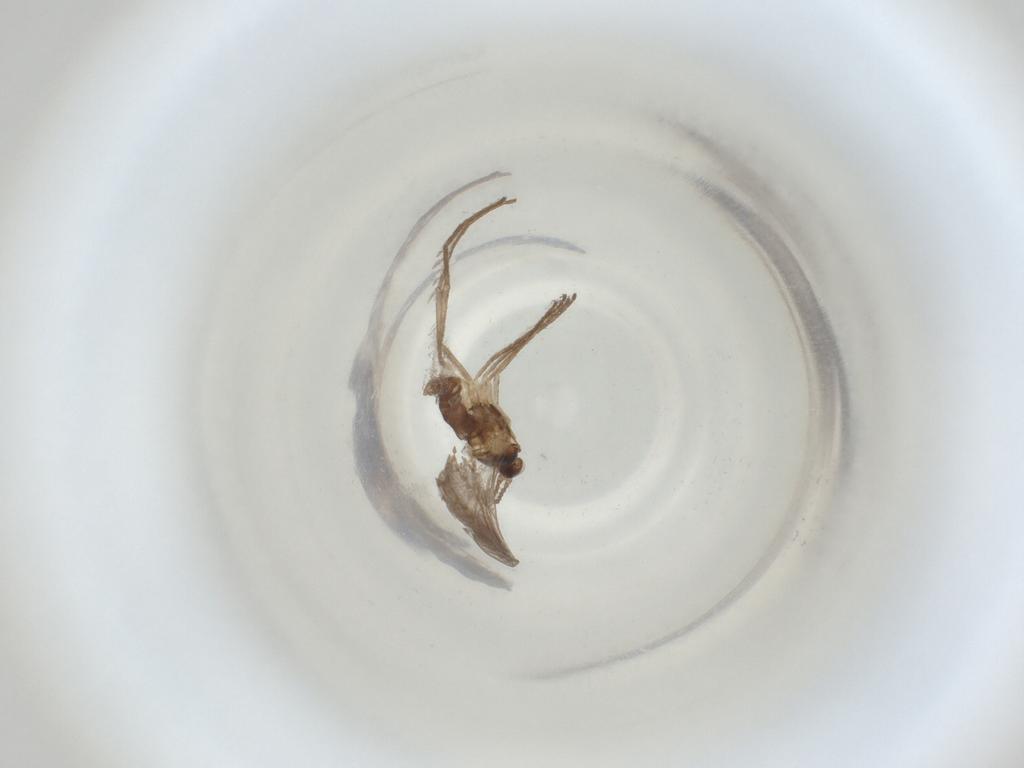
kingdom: Animalia
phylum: Arthropoda
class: Insecta
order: Diptera
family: Cecidomyiidae
